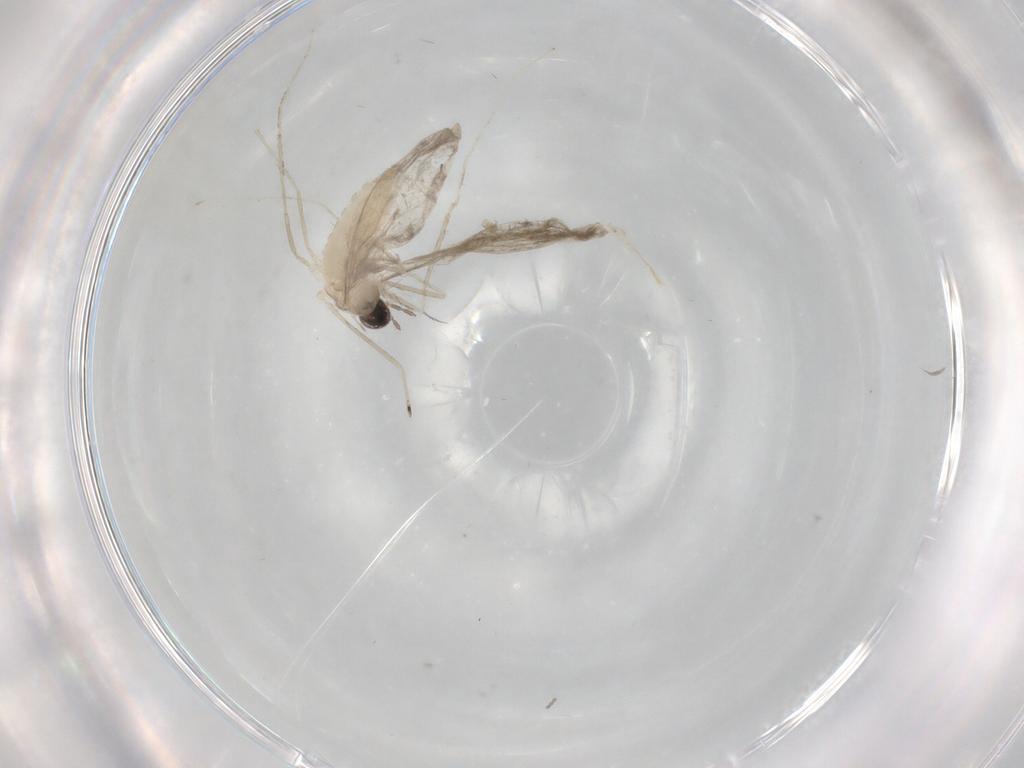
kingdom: Animalia
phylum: Arthropoda
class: Insecta
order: Diptera
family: Cecidomyiidae
